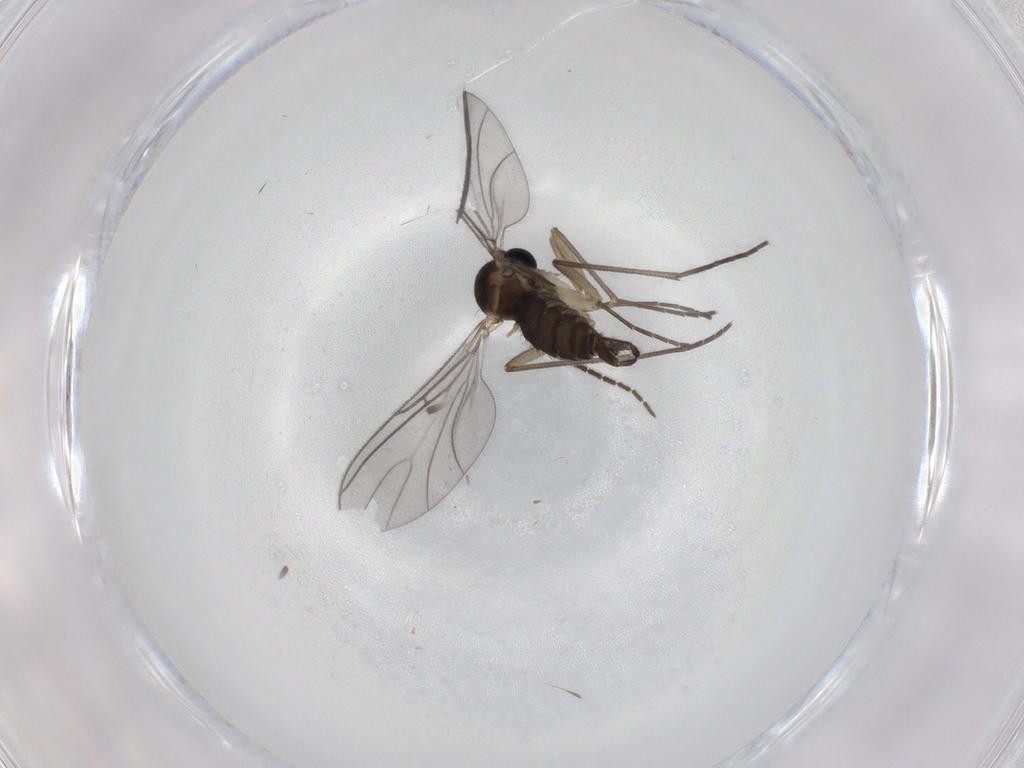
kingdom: Animalia
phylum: Arthropoda
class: Insecta
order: Diptera
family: Sciaridae
